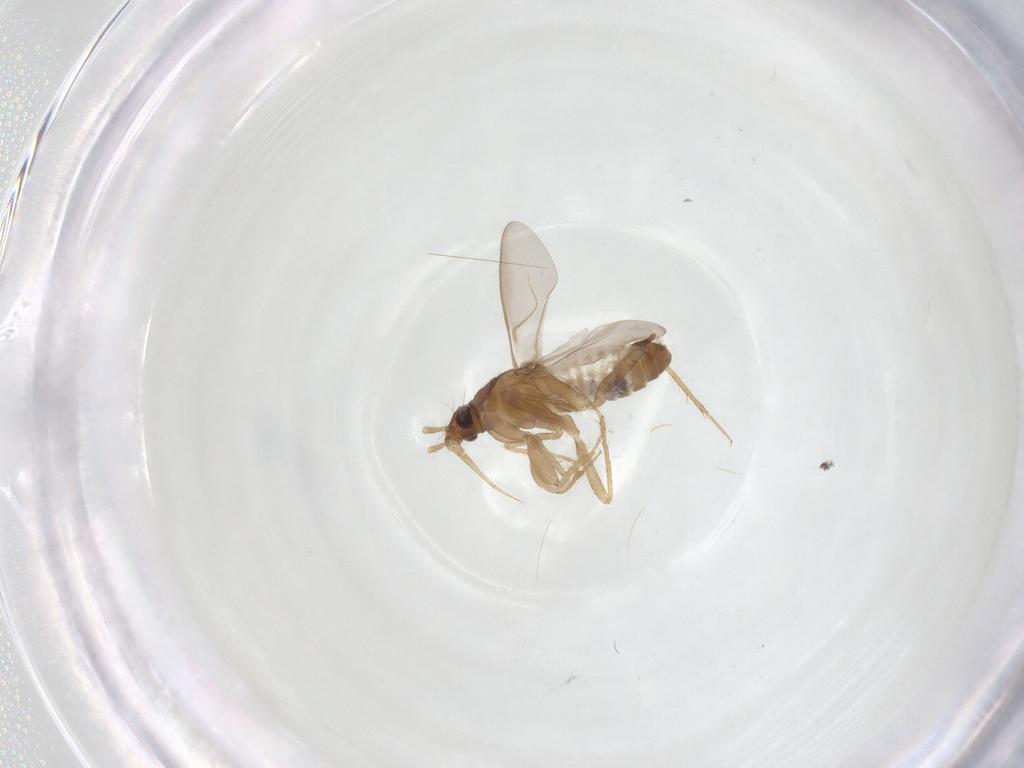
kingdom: Animalia
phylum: Arthropoda
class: Insecta
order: Hemiptera
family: Ceratocombidae
